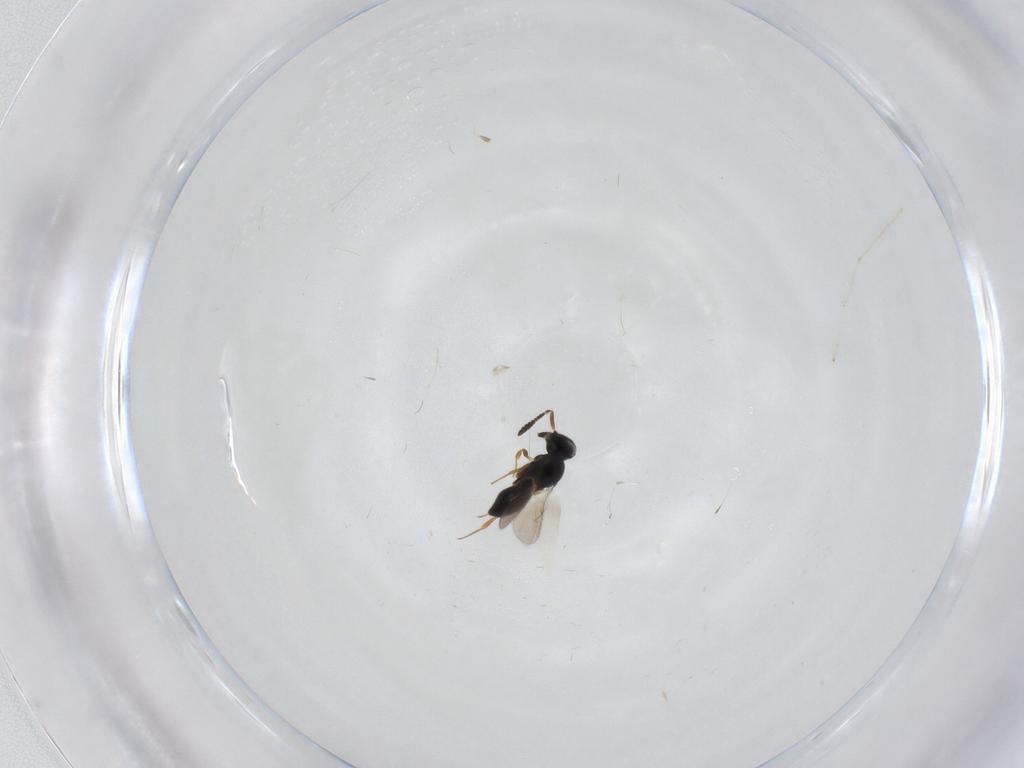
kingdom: Animalia
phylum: Arthropoda
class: Insecta
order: Hymenoptera
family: Scelionidae
